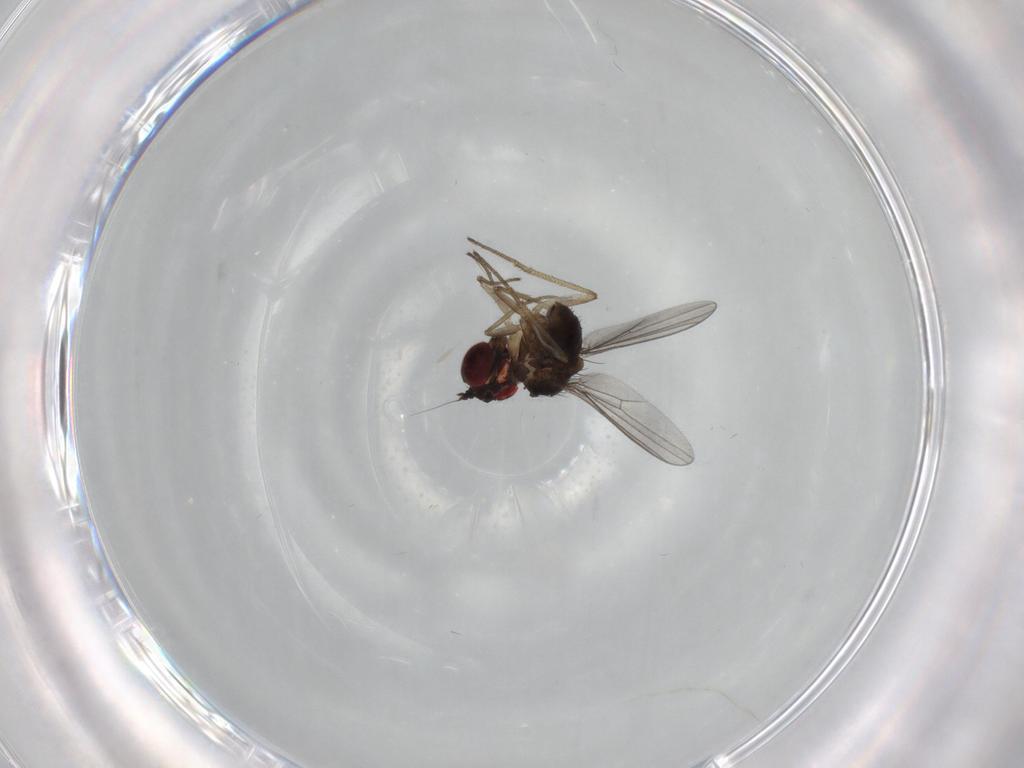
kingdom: Animalia
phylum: Arthropoda
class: Insecta
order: Diptera
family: Dolichopodidae
